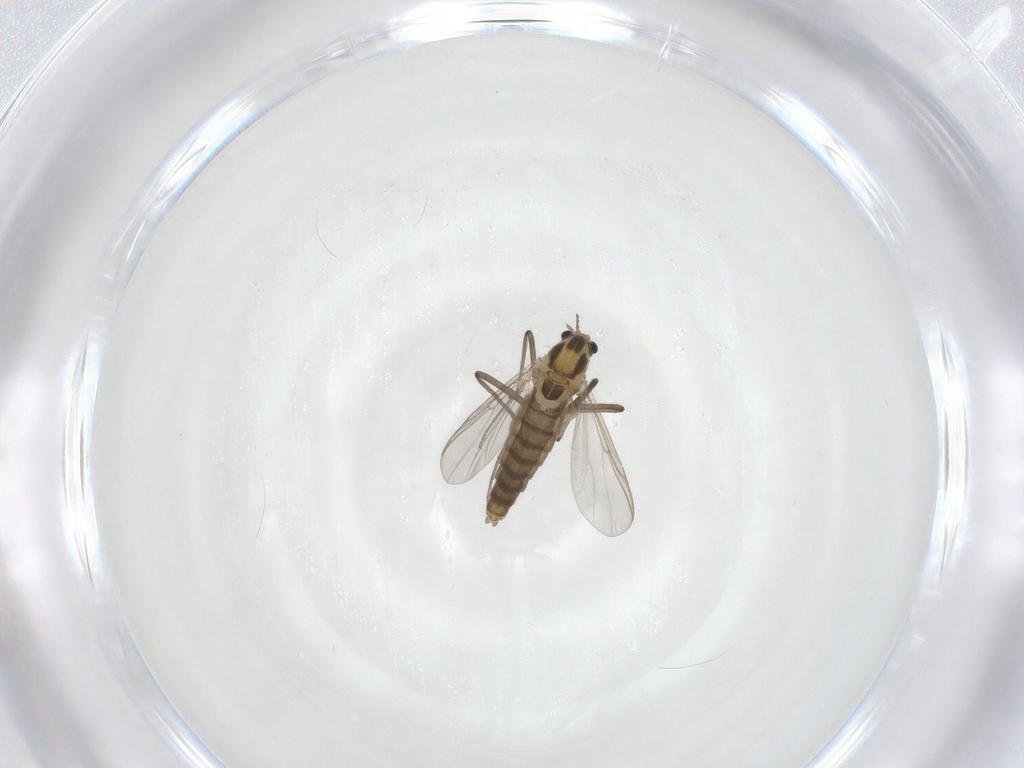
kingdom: Animalia
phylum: Arthropoda
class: Insecta
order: Diptera
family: Chironomidae
